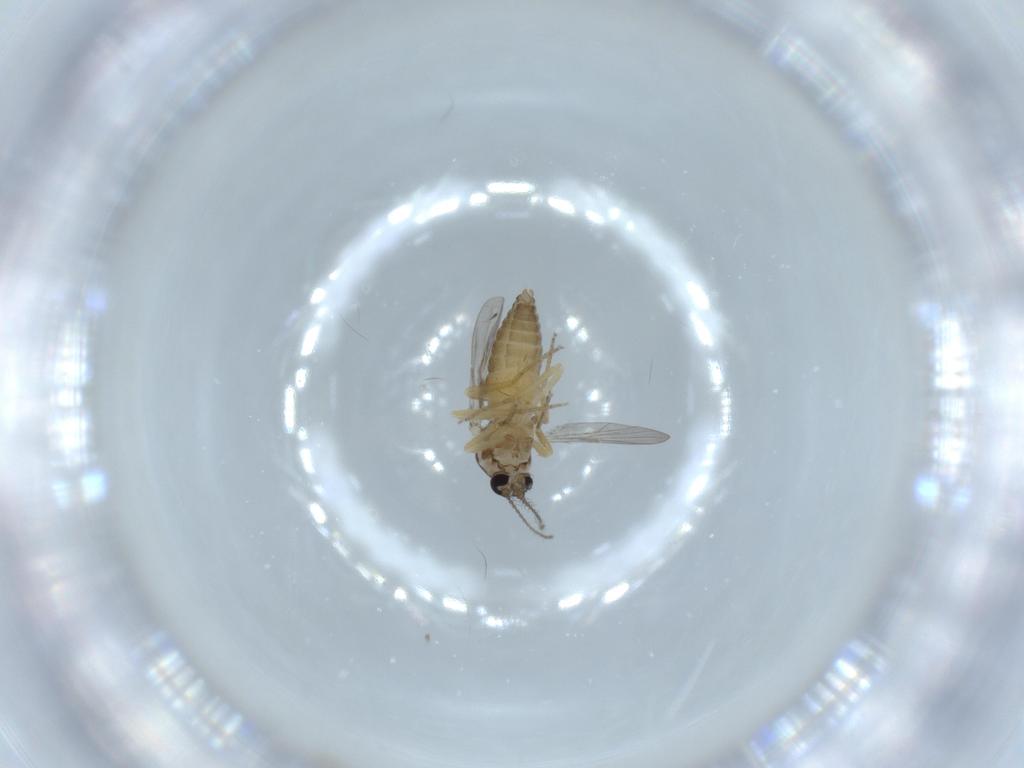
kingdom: Animalia
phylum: Arthropoda
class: Insecta
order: Diptera
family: Ceratopogonidae
